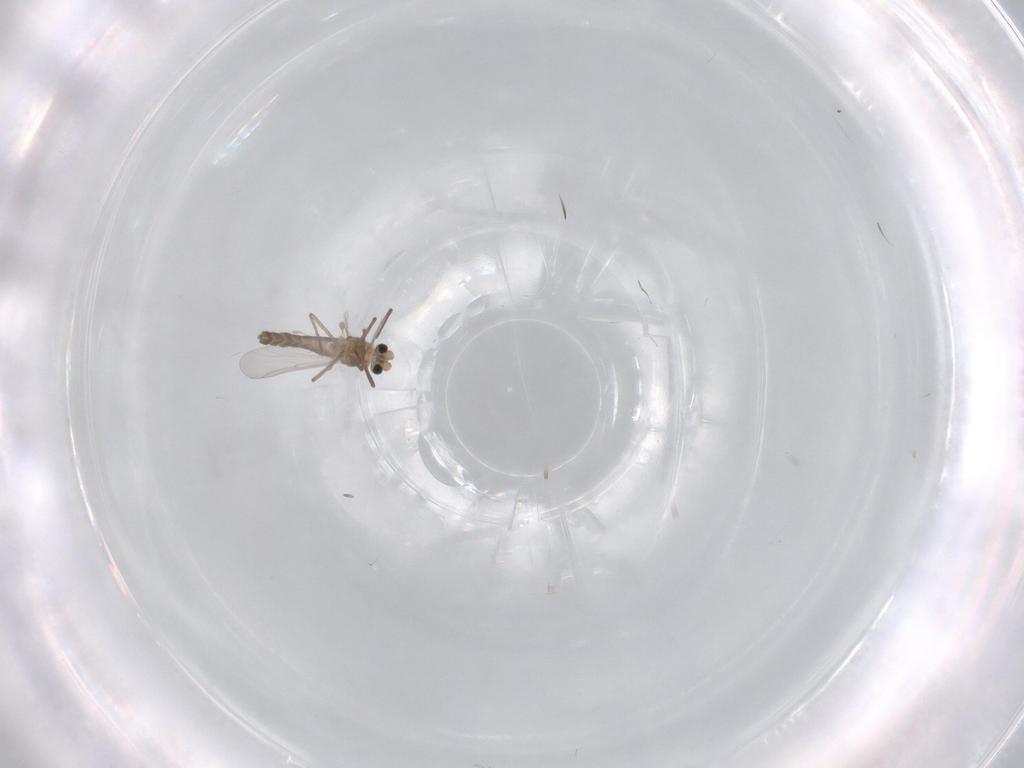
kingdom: Animalia
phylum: Arthropoda
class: Insecta
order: Diptera
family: Chironomidae
